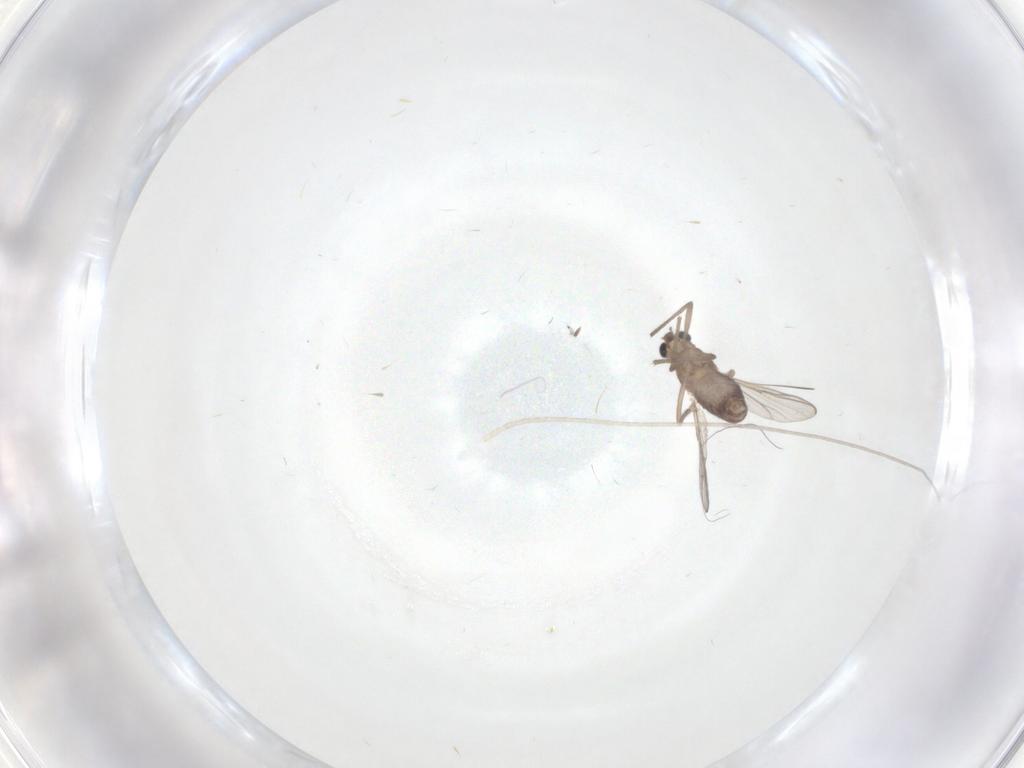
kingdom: Animalia
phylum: Arthropoda
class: Insecta
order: Diptera
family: Chironomidae
